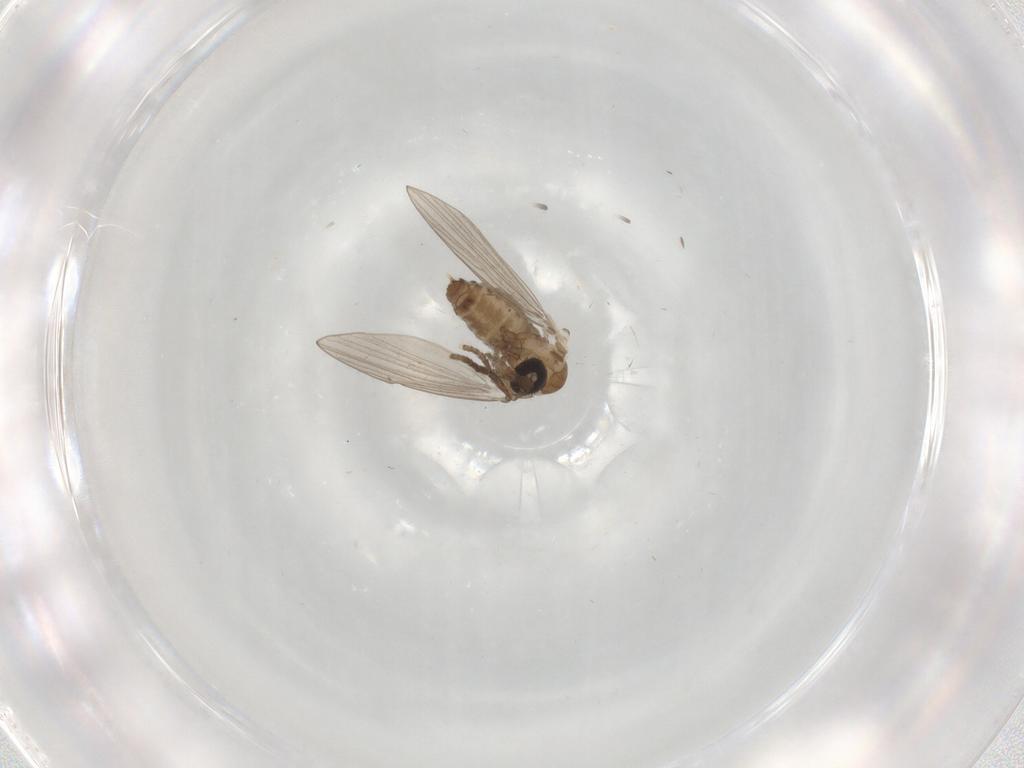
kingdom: Animalia
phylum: Arthropoda
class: Insecta
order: Diptera
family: Psychodidae
